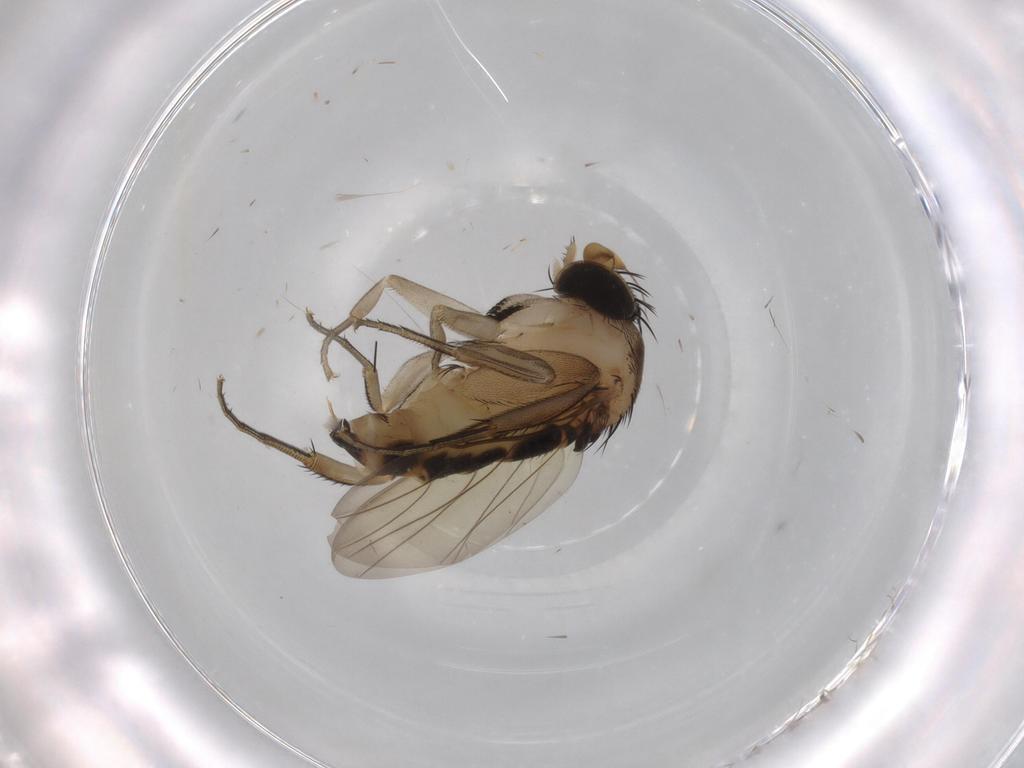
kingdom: Animalia
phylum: Arthropoda
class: Insecta
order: Diptera
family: Phoridae
